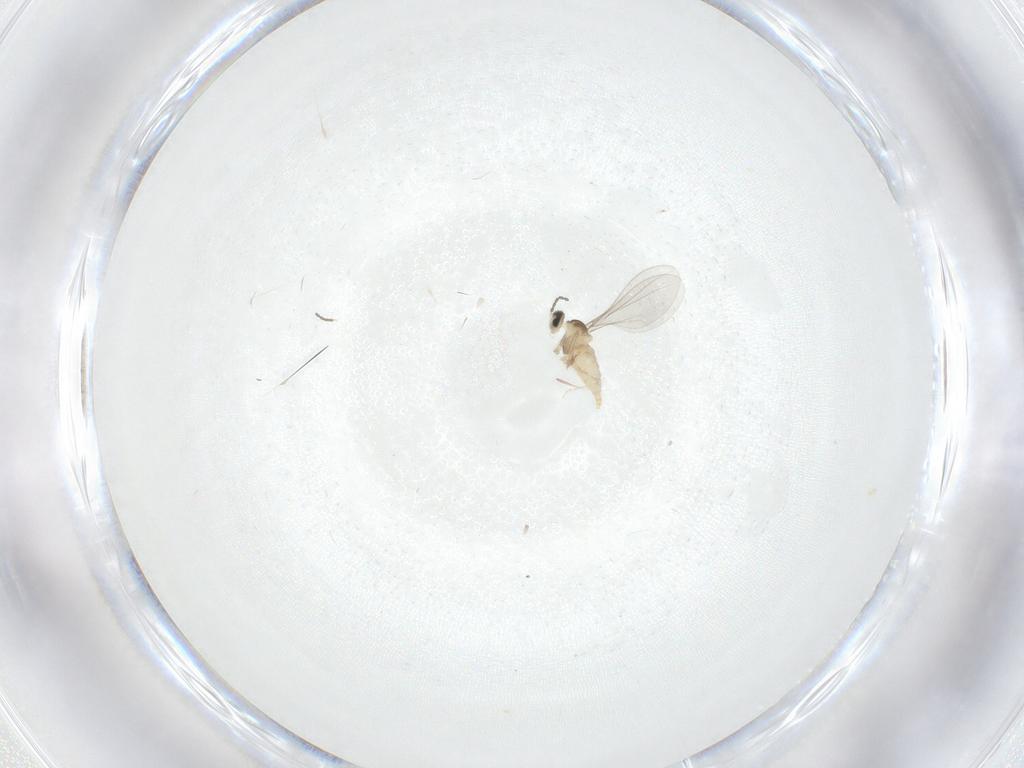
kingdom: Animalia
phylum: Arthropoda
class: Insecta
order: Diptera
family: Cecidomyiidae
